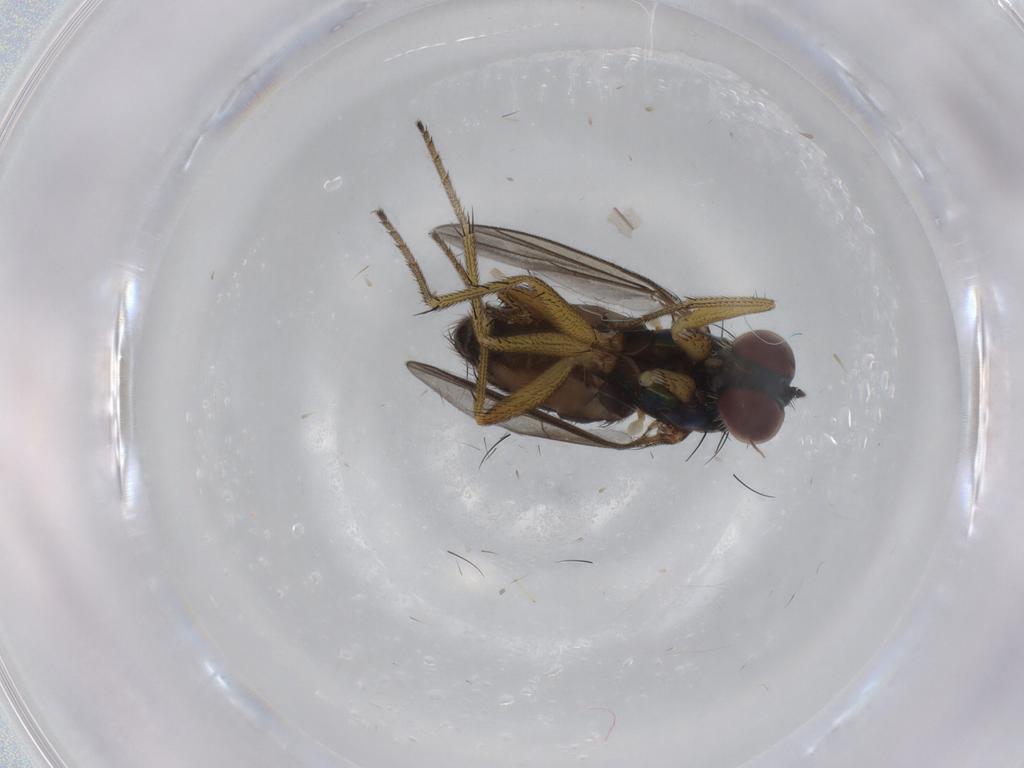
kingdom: Animalia
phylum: Arthropoda
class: Insecta
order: Diptera
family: Dolichopodidae
